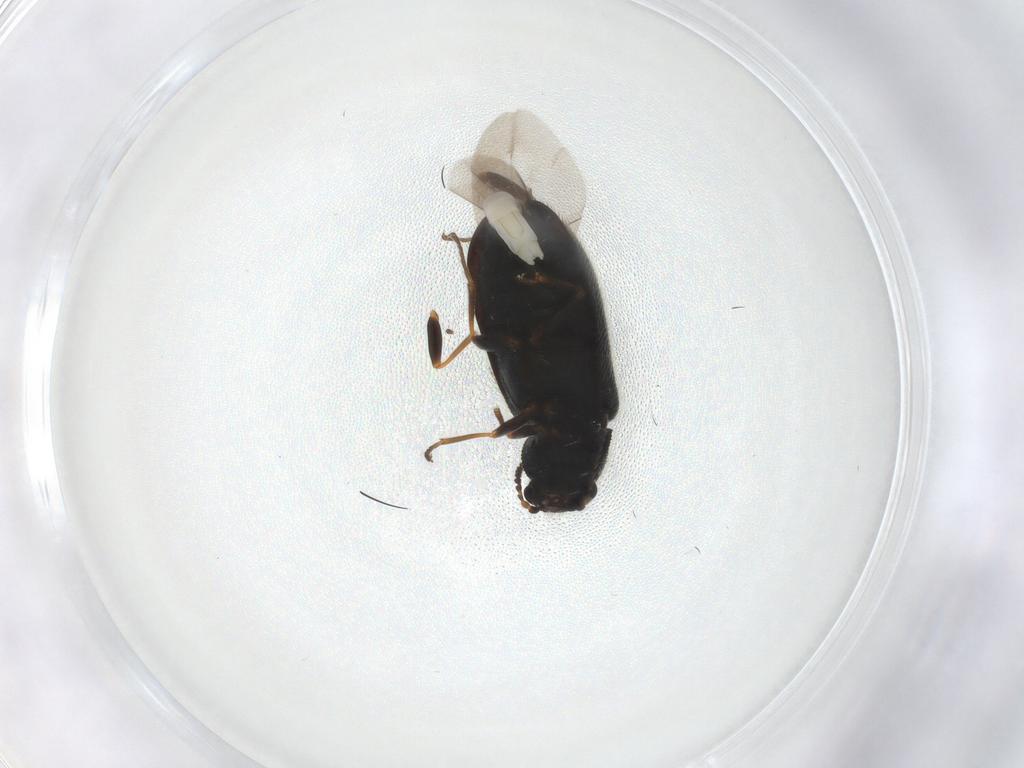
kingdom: Animalia
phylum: Arthropoda
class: Insecta
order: Coleoptera
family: Melyridae
